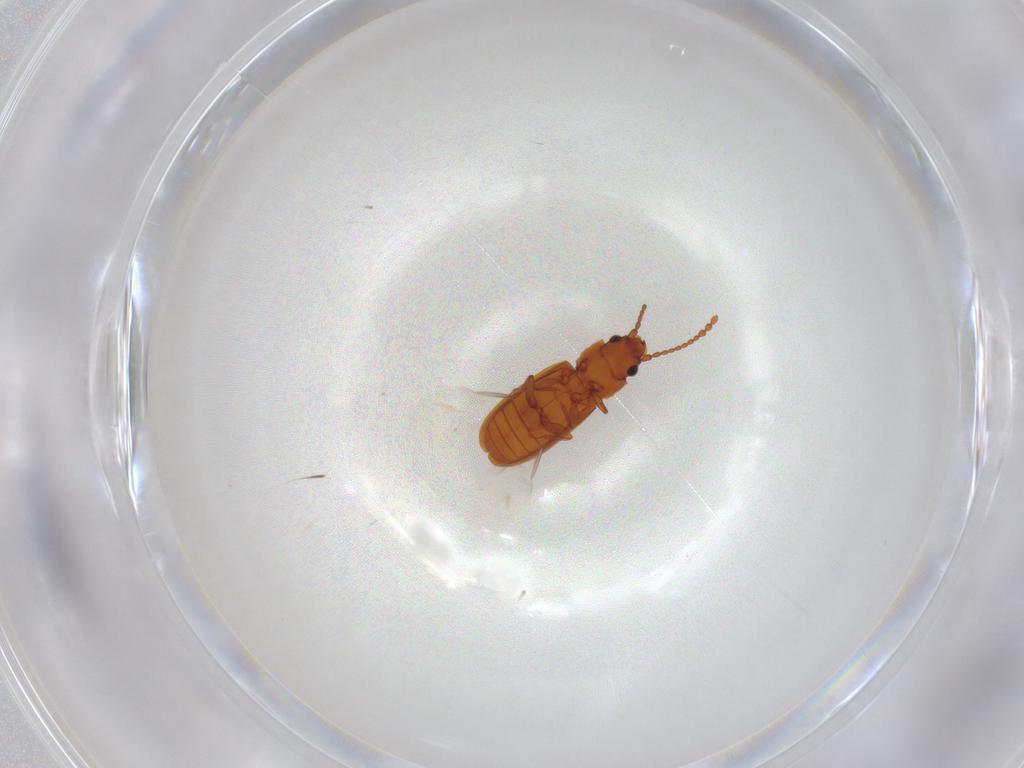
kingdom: Animalia
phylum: Arthropoda
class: Insecta
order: Coleoptera
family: Laemophloeidae
